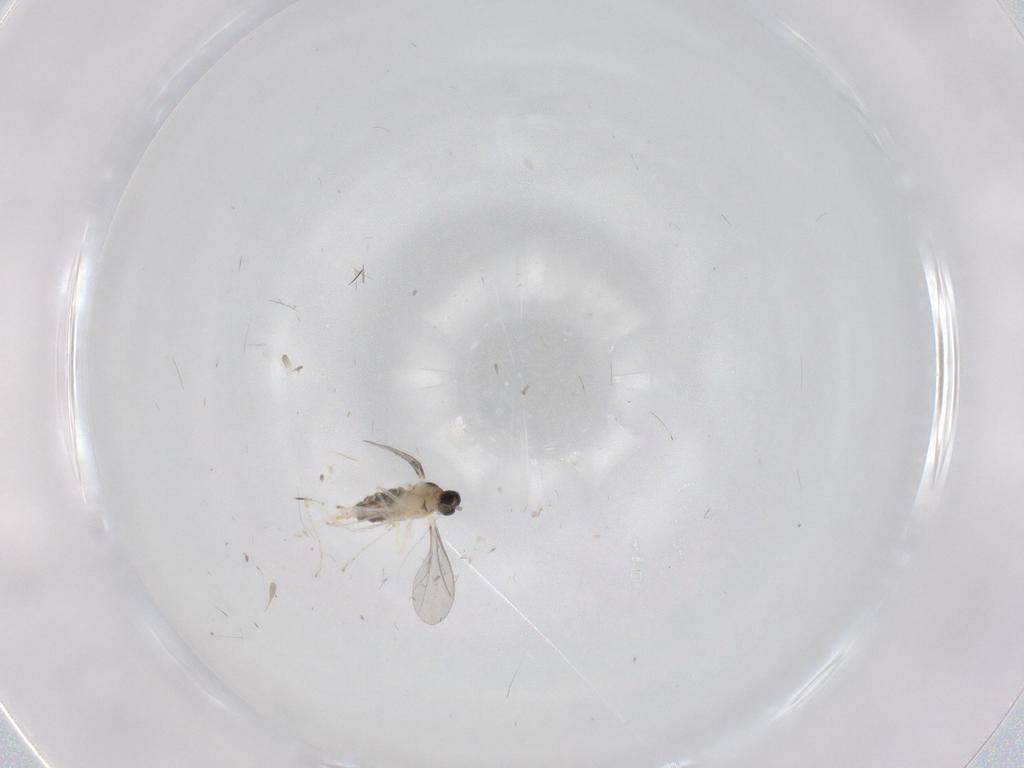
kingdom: Animalia
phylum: Arthropoda
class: Insecta
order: Diptera
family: Cecidomyiidae
